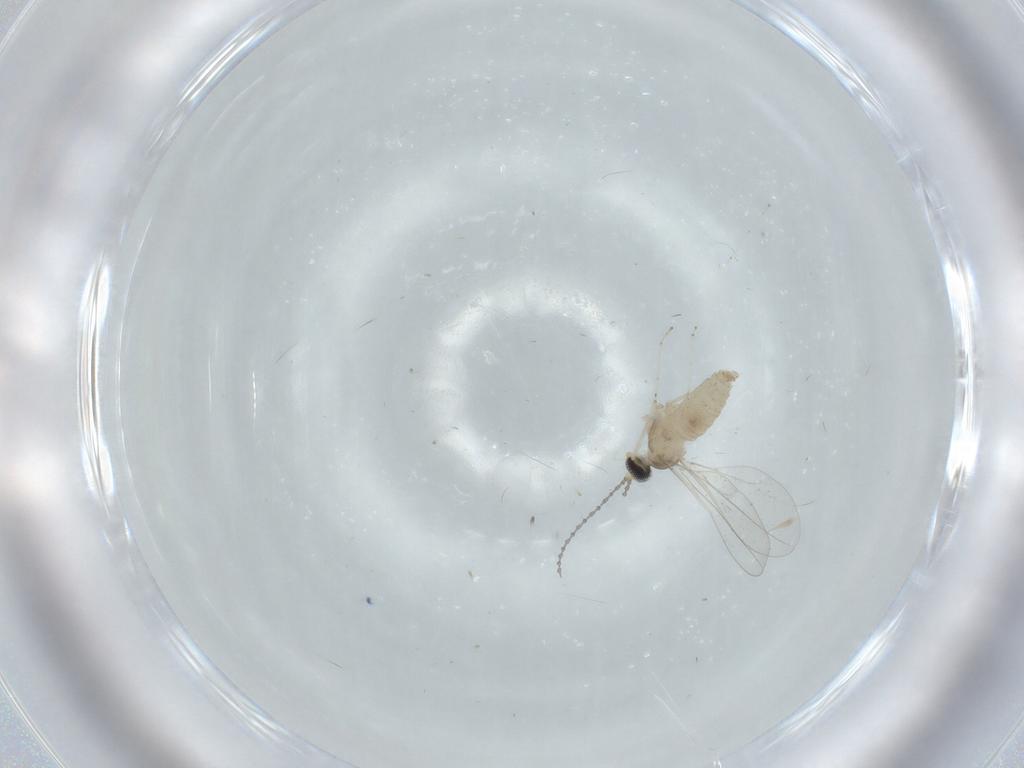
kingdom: Animalia
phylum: Arthropoda
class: Insecta
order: Diptera
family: Cecidomyiidae
